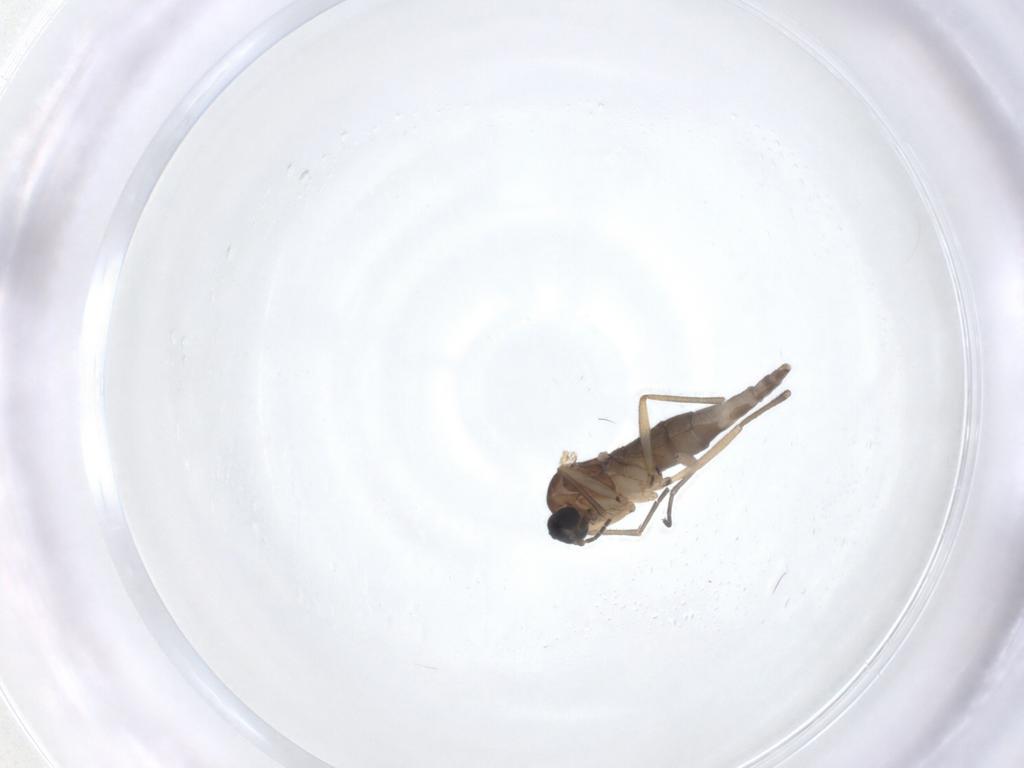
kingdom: Animalia
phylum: Arthropoda
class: Insecta
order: Diptera
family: Sciaridae
